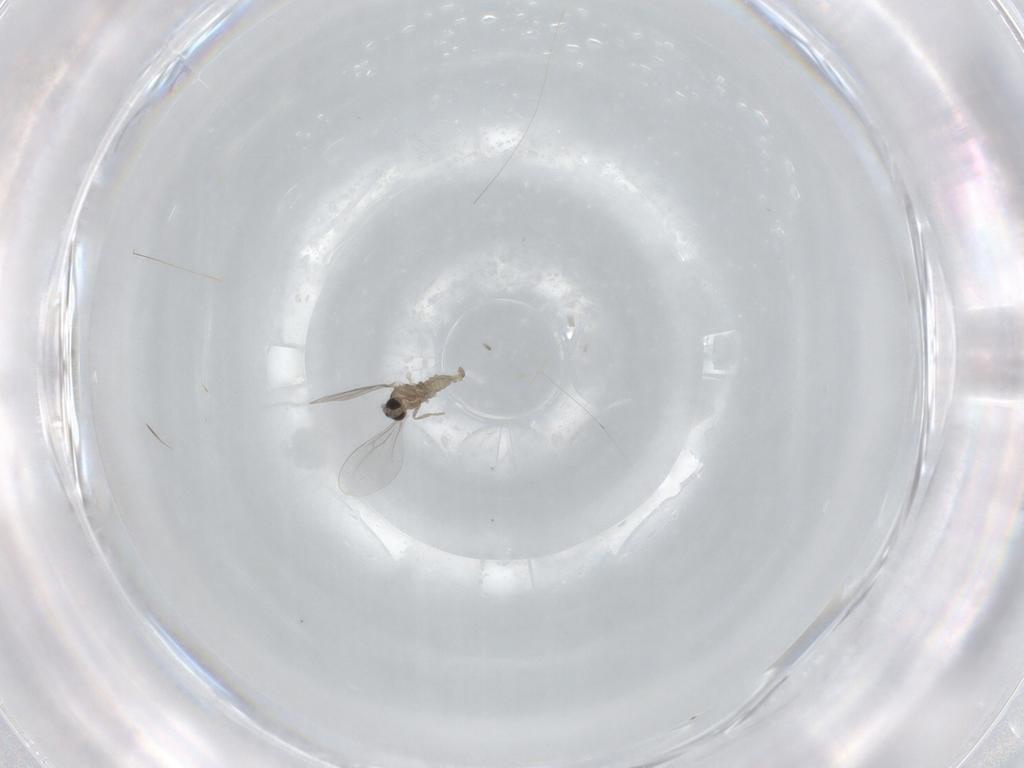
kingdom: Animalia
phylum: Arthropoda
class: Insecta
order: Diptera
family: Cecidomyiidae
